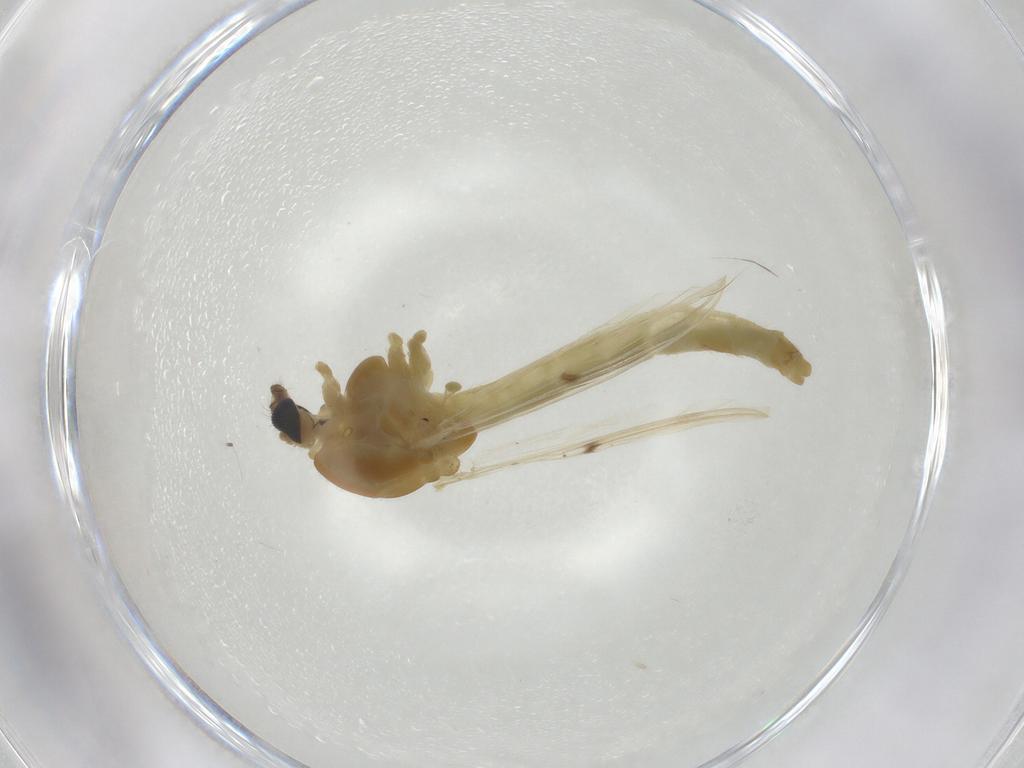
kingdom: Animalia
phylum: Arthropoda
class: Insecta
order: Diptera
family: Chironomidae
